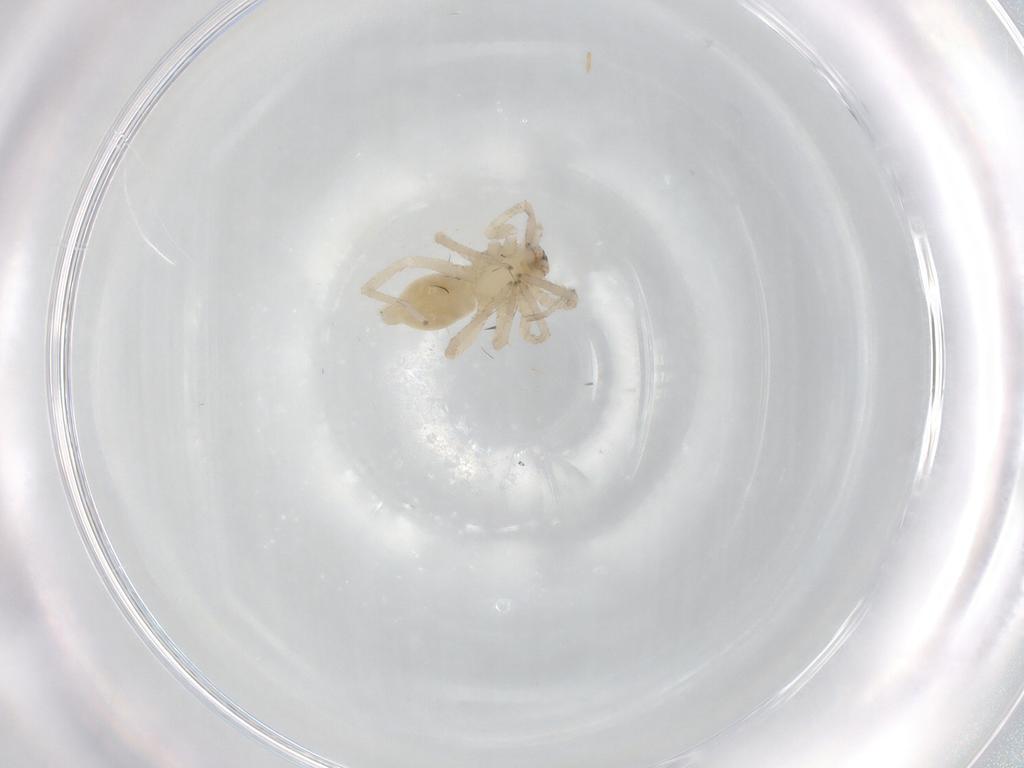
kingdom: Animalia
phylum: Arthropoda
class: Arachnida
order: Araneae
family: Anyphaenidae
